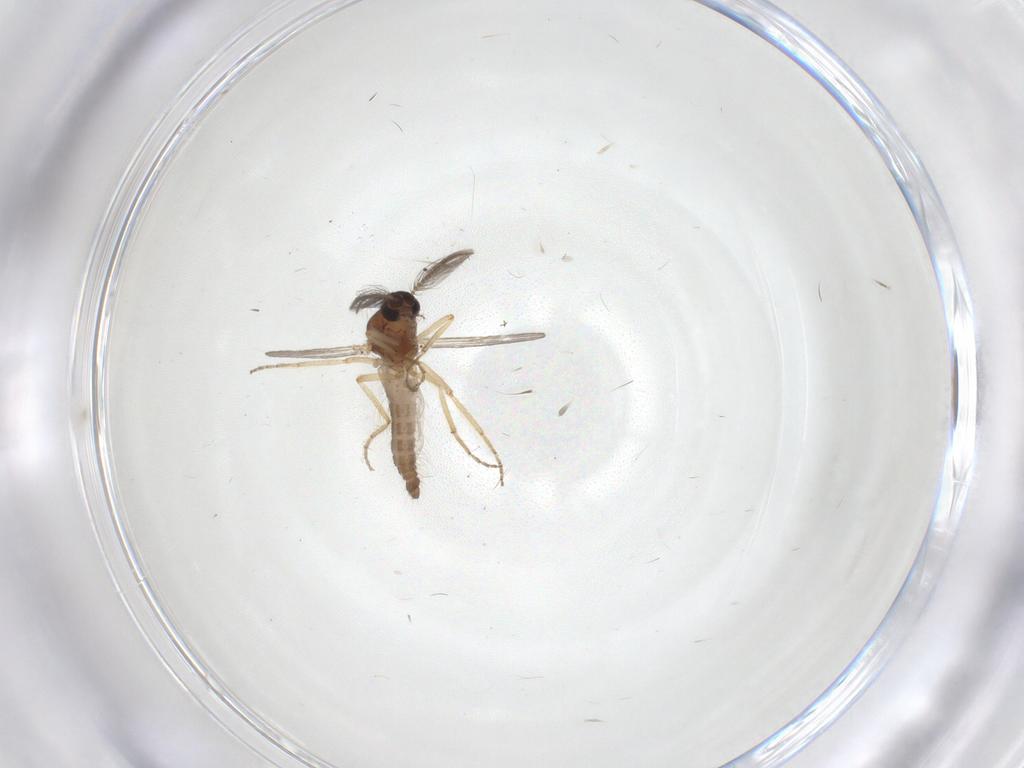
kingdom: Animalia
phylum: Arthropoda
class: Insecta
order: Diptera
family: Ceratopogonidae
